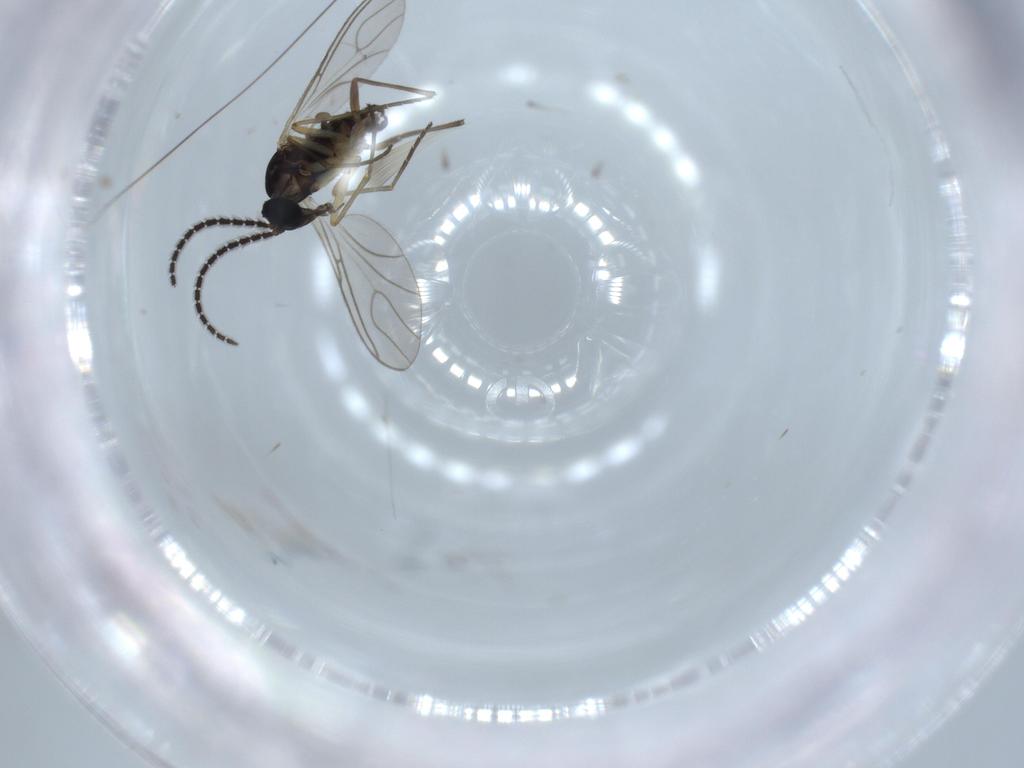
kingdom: Animalia
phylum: Arthropoda
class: Insecta
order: Diptera
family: Sciaridae
